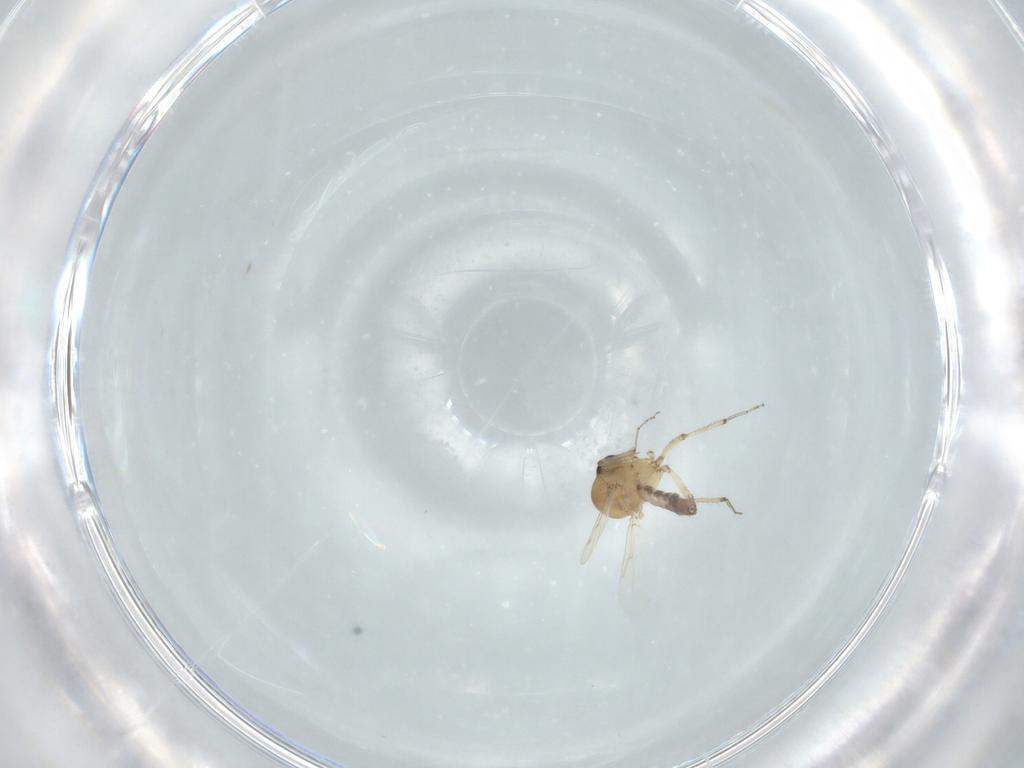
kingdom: Animalia
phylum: Arthropoda
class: Insecta
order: Diptera
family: Ceratopogonidae
